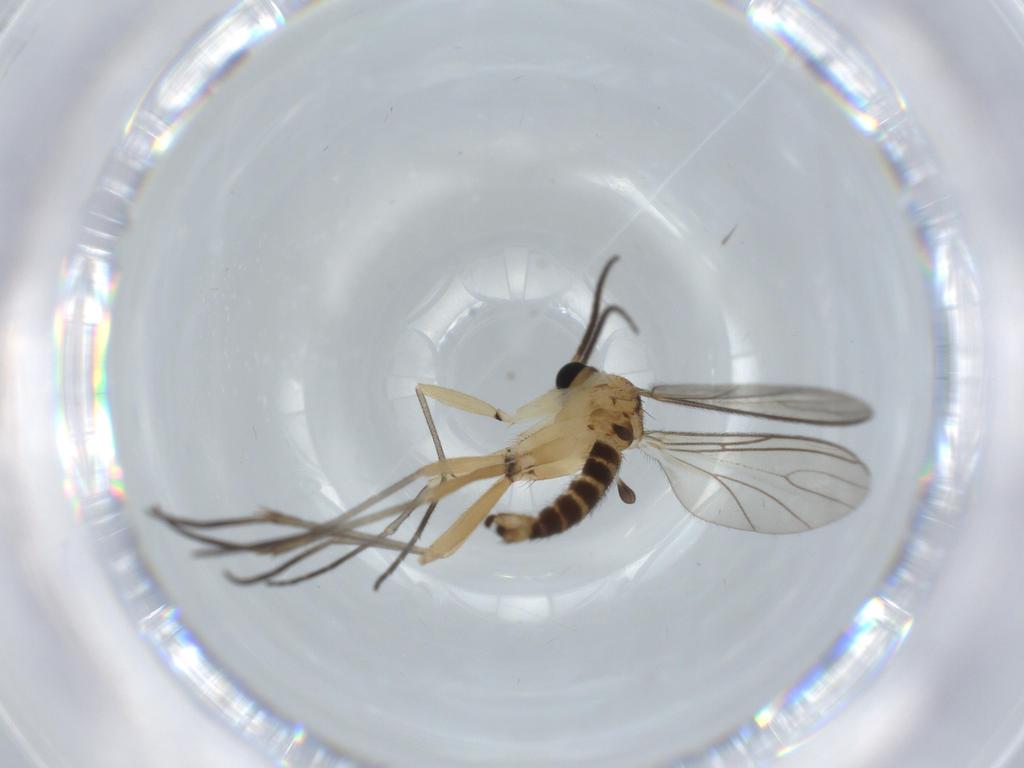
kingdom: Animalia
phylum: Arthropoda
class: Insecta
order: Diptera
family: Sciaridae
